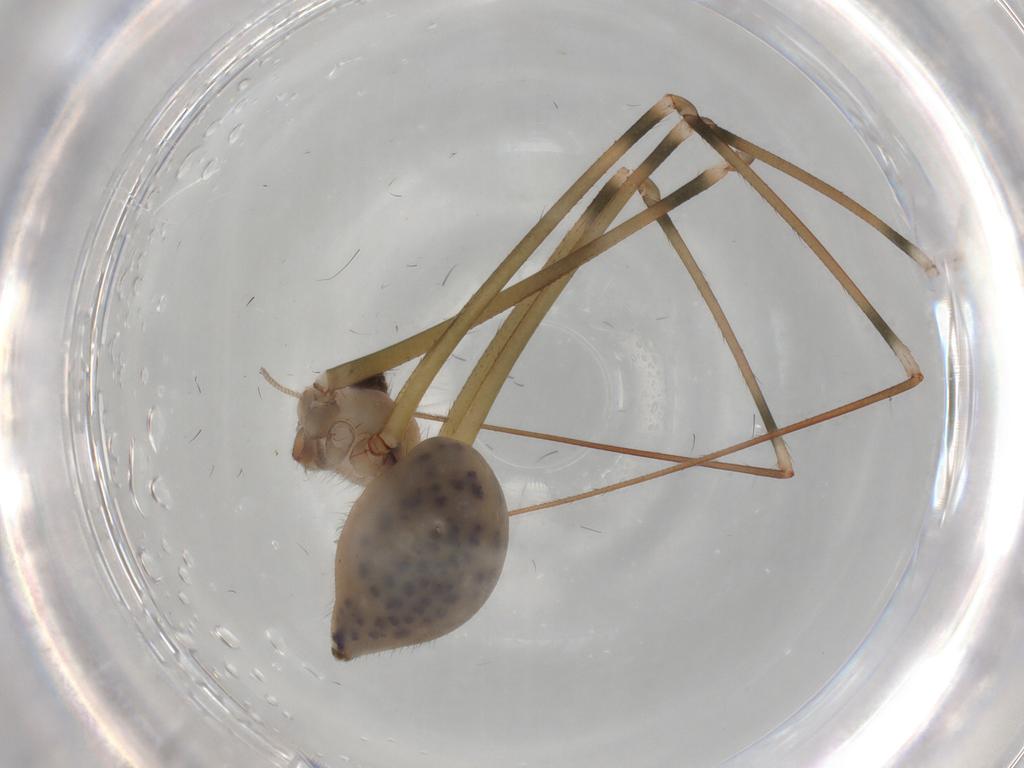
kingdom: Animalia
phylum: Arthropoda
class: Arachnida
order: Araneae
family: Pholcidae
